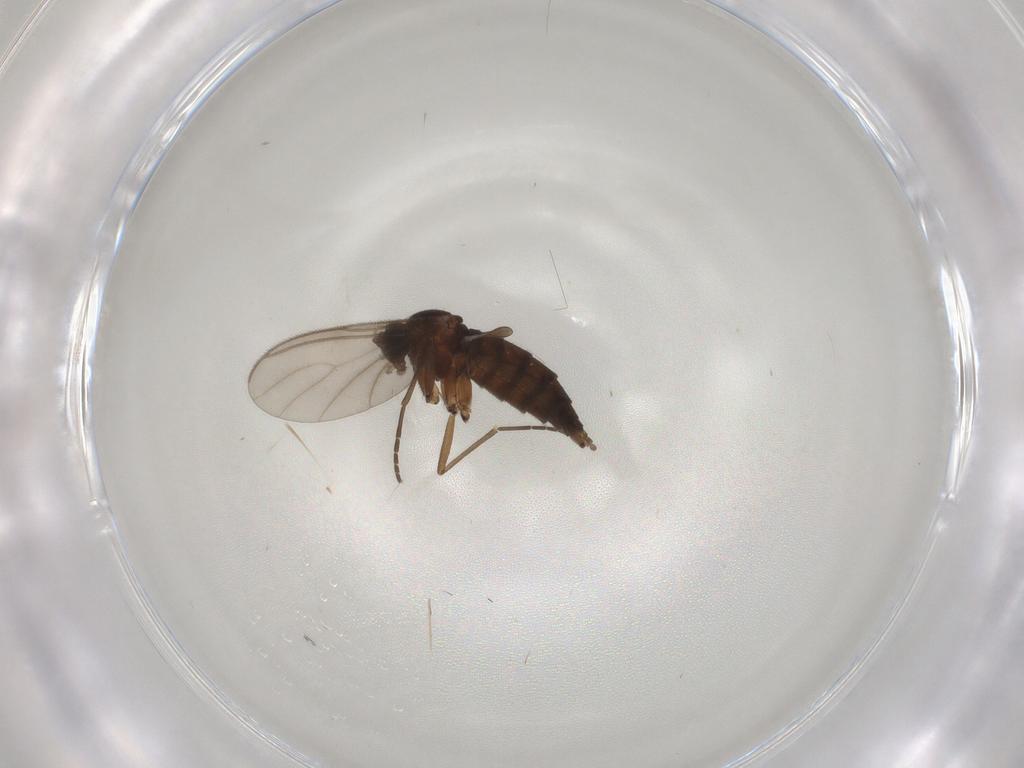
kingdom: Animalia
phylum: Arthropoda
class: Insecta
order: Diptera
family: Sciaridae
